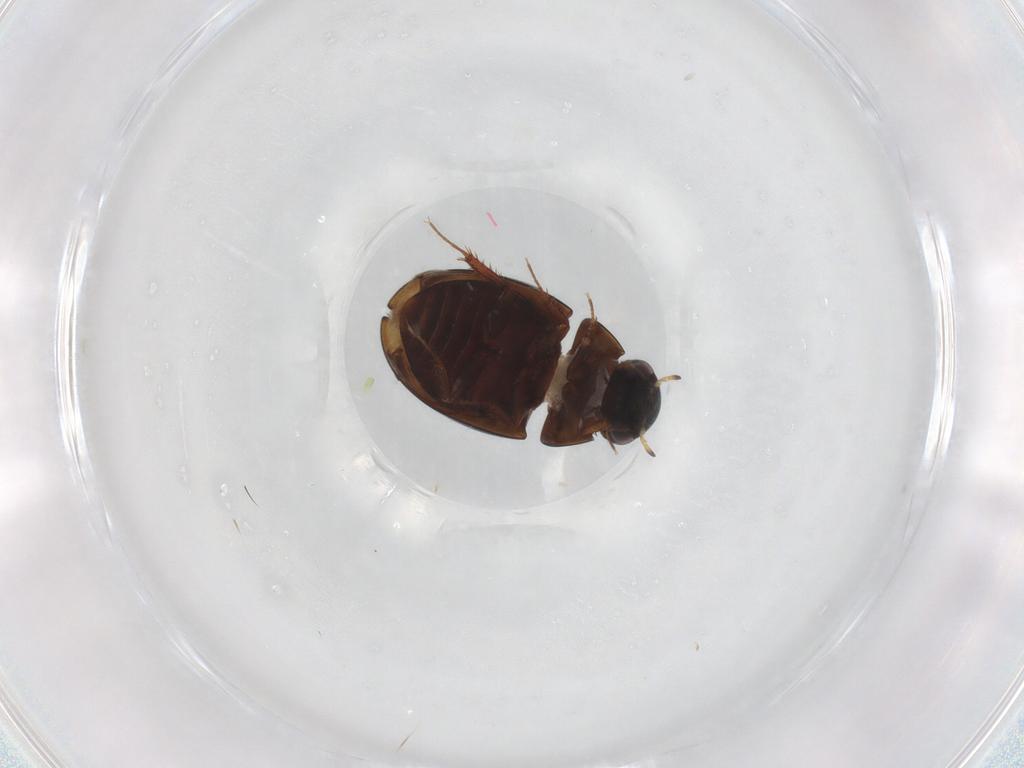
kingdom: Animalia
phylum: Arthropoda
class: Insecta
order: Coleoptera
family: Hydrophilidae
